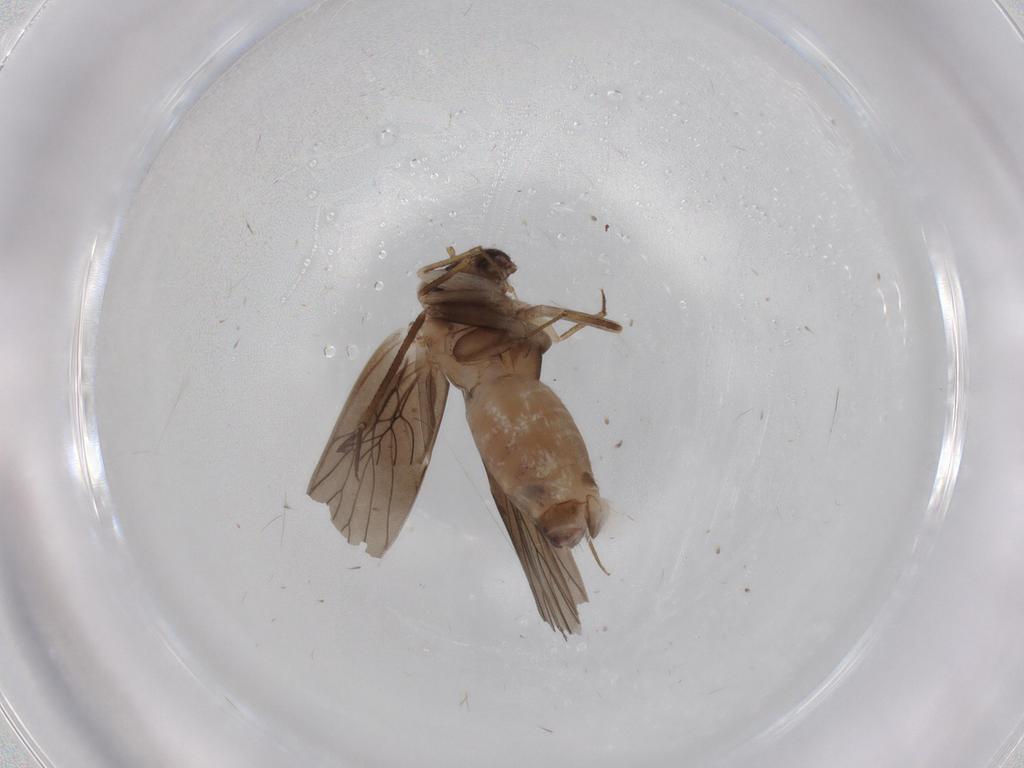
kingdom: Animalia
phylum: Arthropoda
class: Insecta
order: Psocodea
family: Lepidopsocidae
